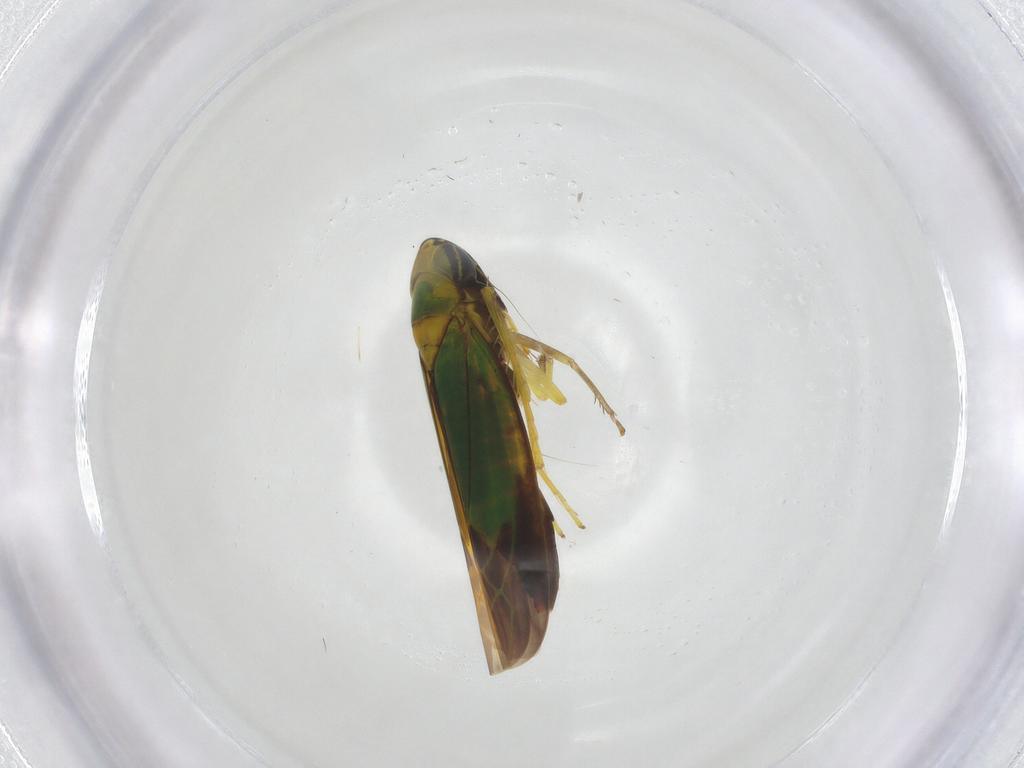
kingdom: Animalia
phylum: Arthropoda
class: Insecta
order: Hemiptera
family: Cicadellidae
